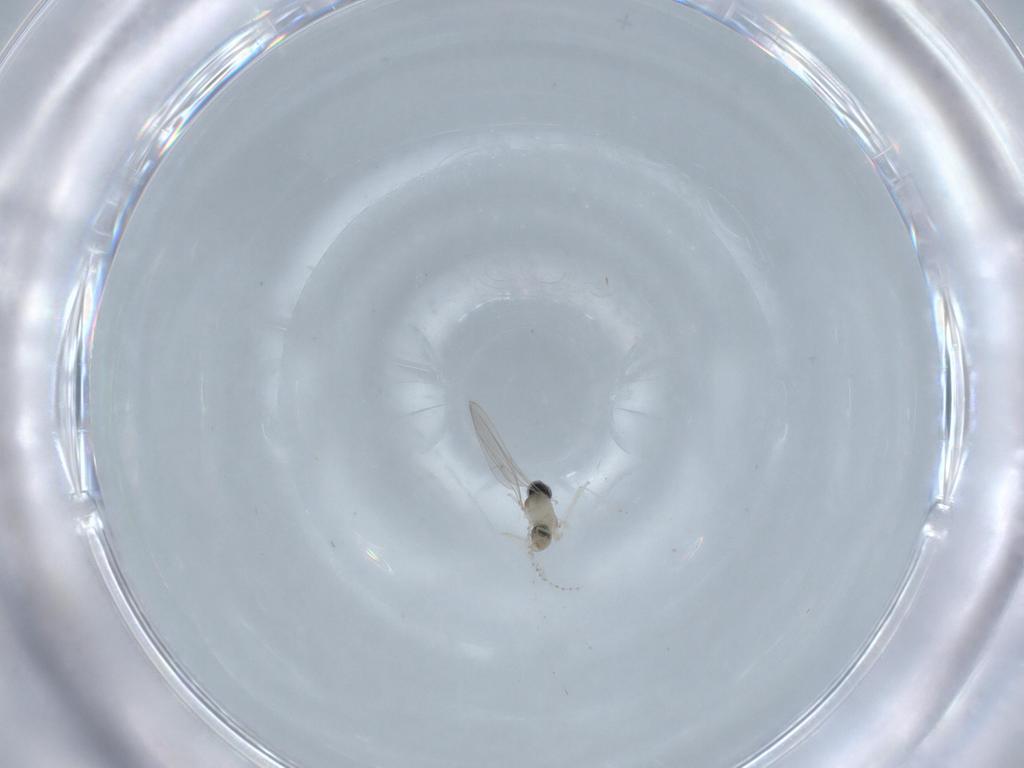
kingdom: Animalia
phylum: Arthropoda
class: Insecta
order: Diptera
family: Cecidomyiidae
